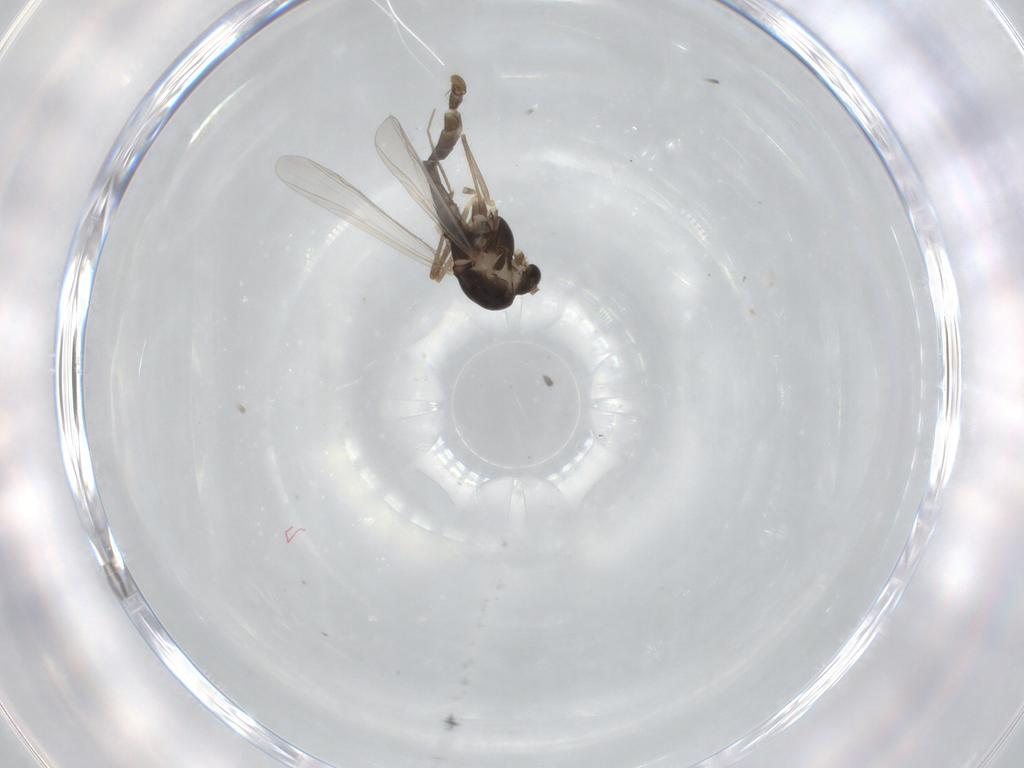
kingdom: Animalia
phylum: Arthropoda
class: Insecta
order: Diptera
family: Chironomidae
